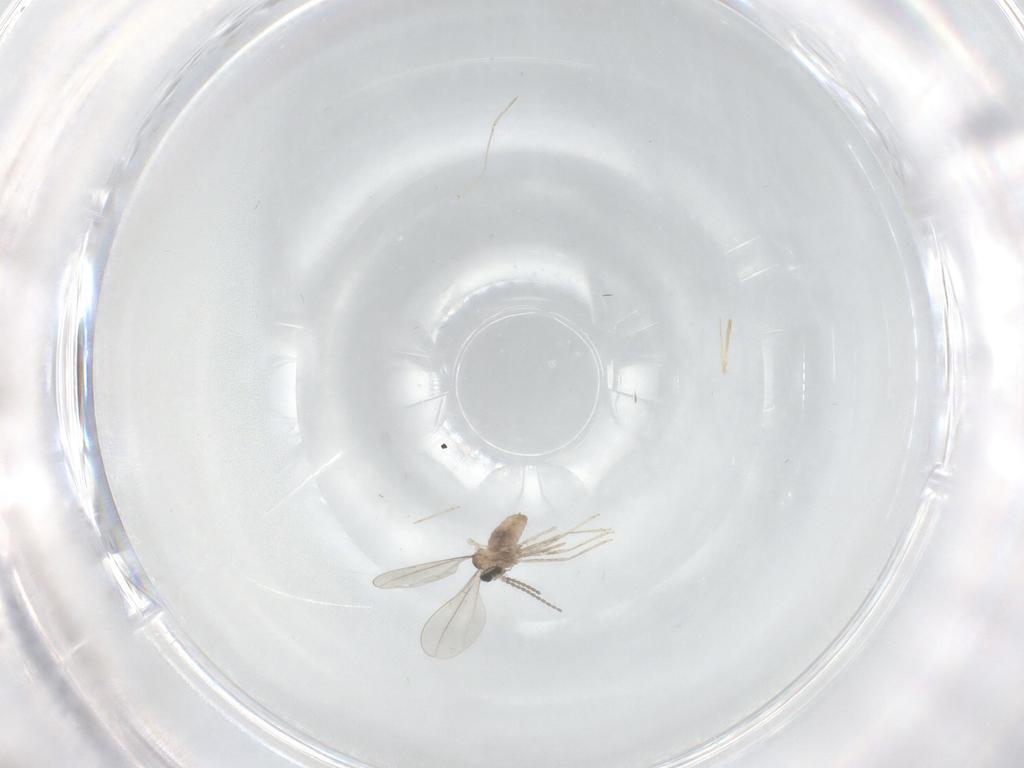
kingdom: Animalia
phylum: Arthropoda
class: Insecta
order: Diptera
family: Cecidomyiidae
